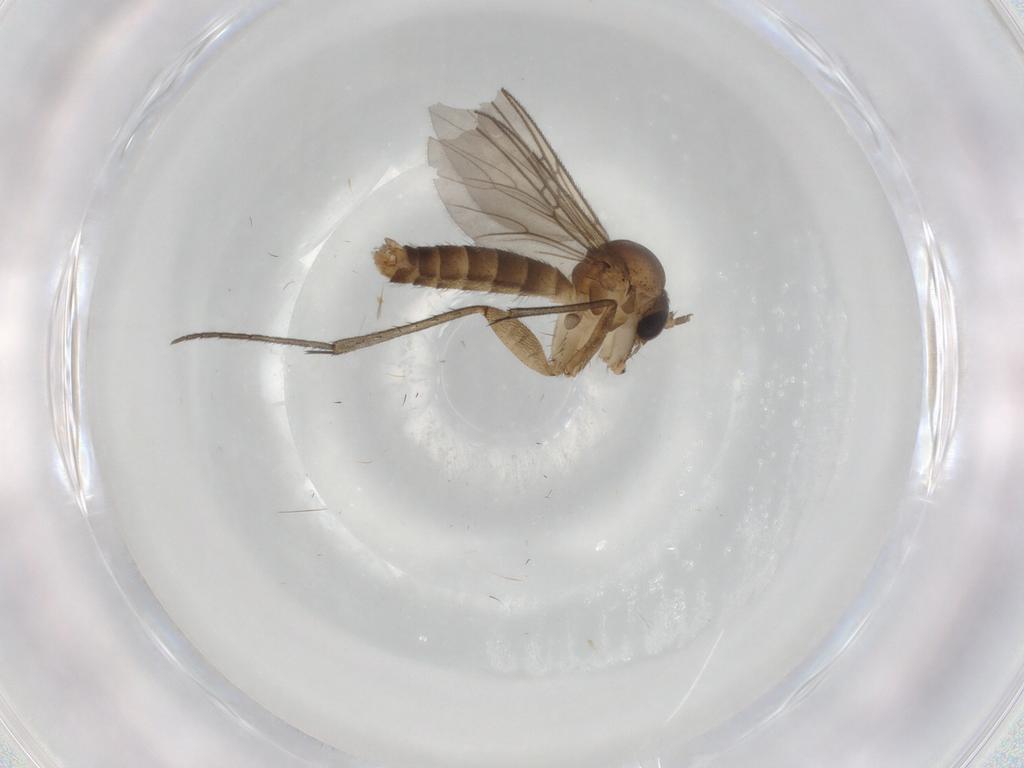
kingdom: Animalia
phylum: Arthropoda
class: Insecta
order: Diptera
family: Mycetophilidae
